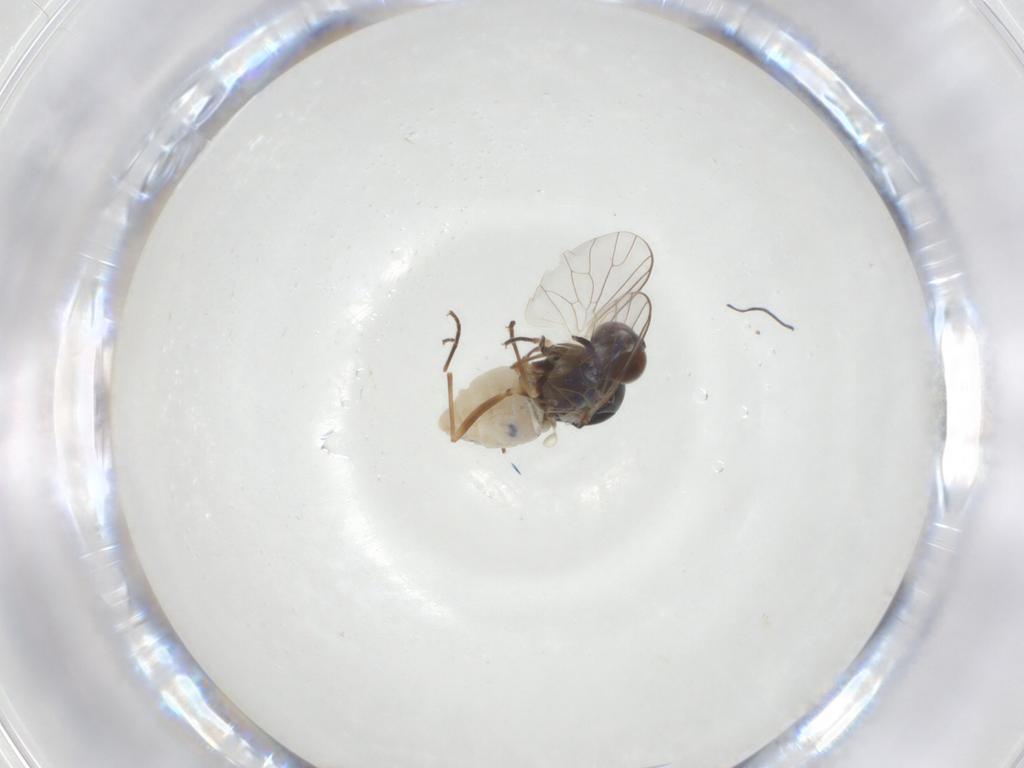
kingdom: Animalia
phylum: Arthropoda
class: Insecta
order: Diptera
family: Bombyliidae
